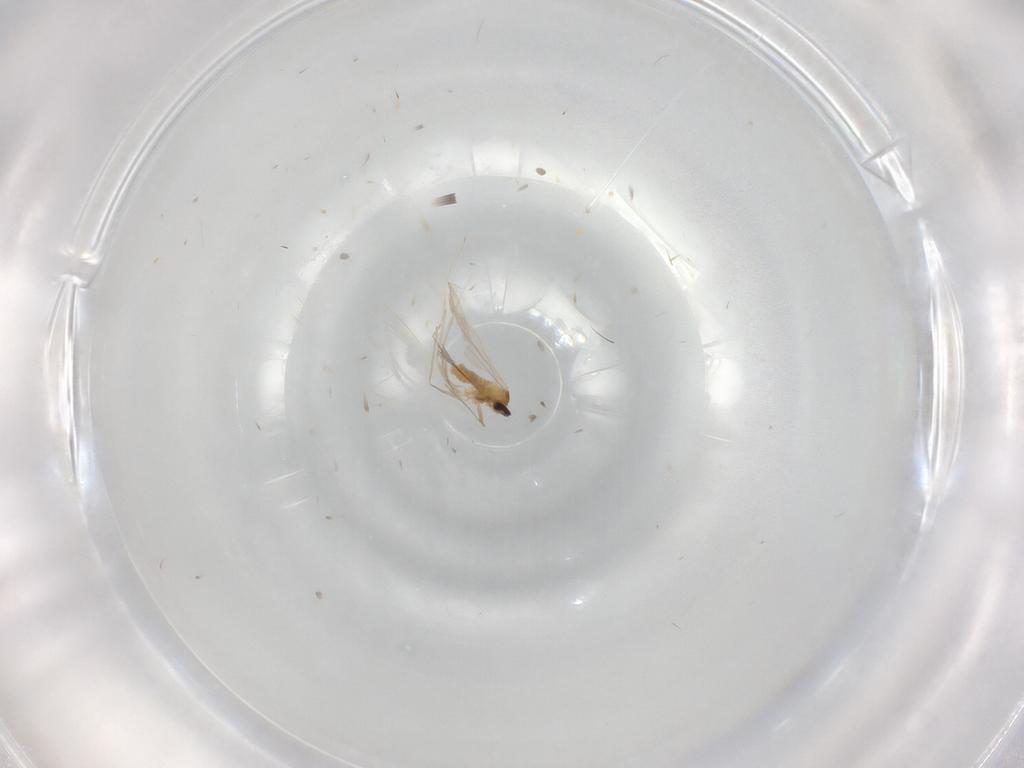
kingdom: Animalia
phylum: Arthropoda
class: Insecta
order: Diptera
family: Cecidomyiidae
